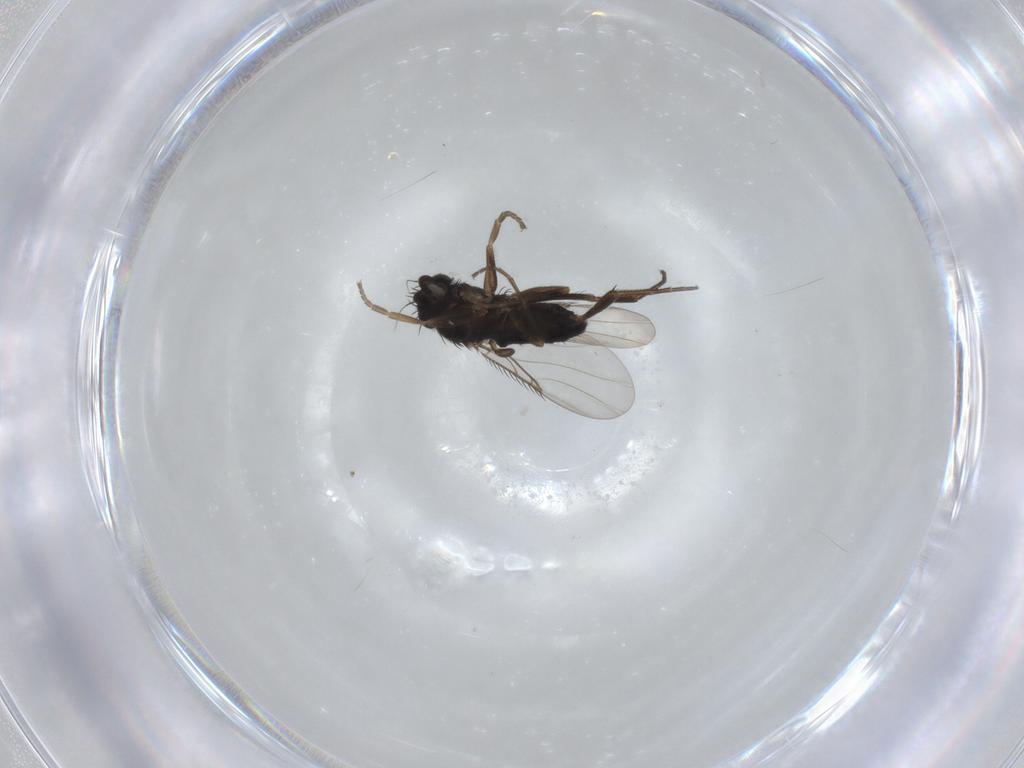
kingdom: Animalia
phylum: Arthropoda
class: Insecta
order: Diptera
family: Phoridae
